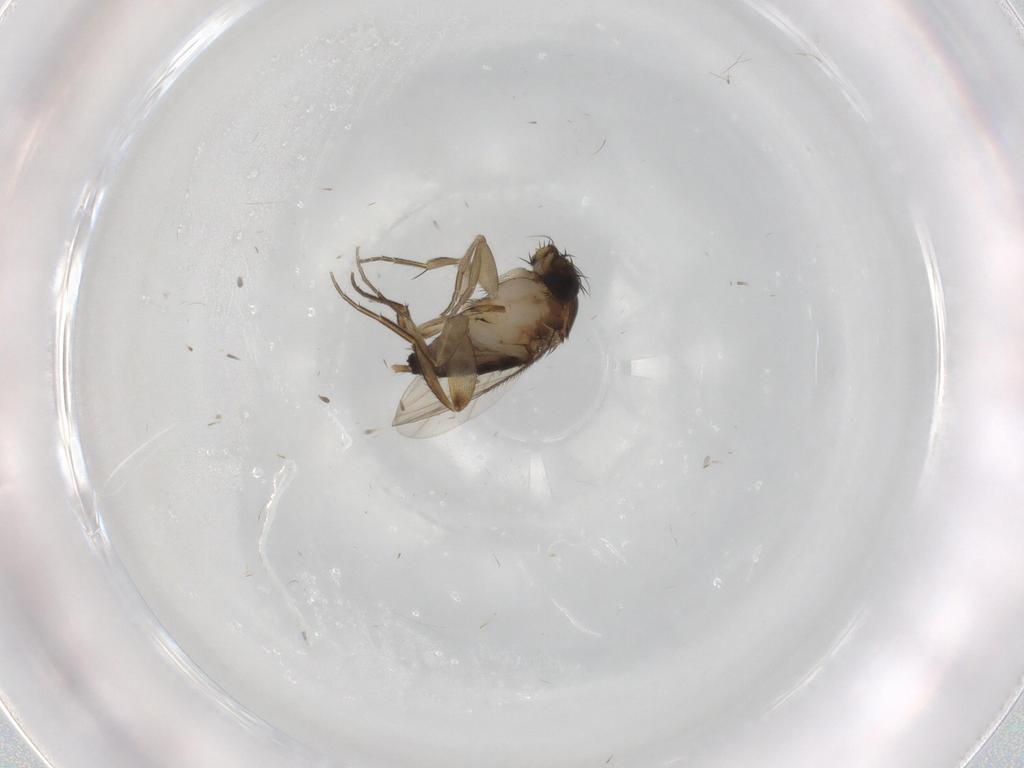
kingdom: Animalia
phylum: Arthropoda
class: Insecta
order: Diptera
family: Phoridae
